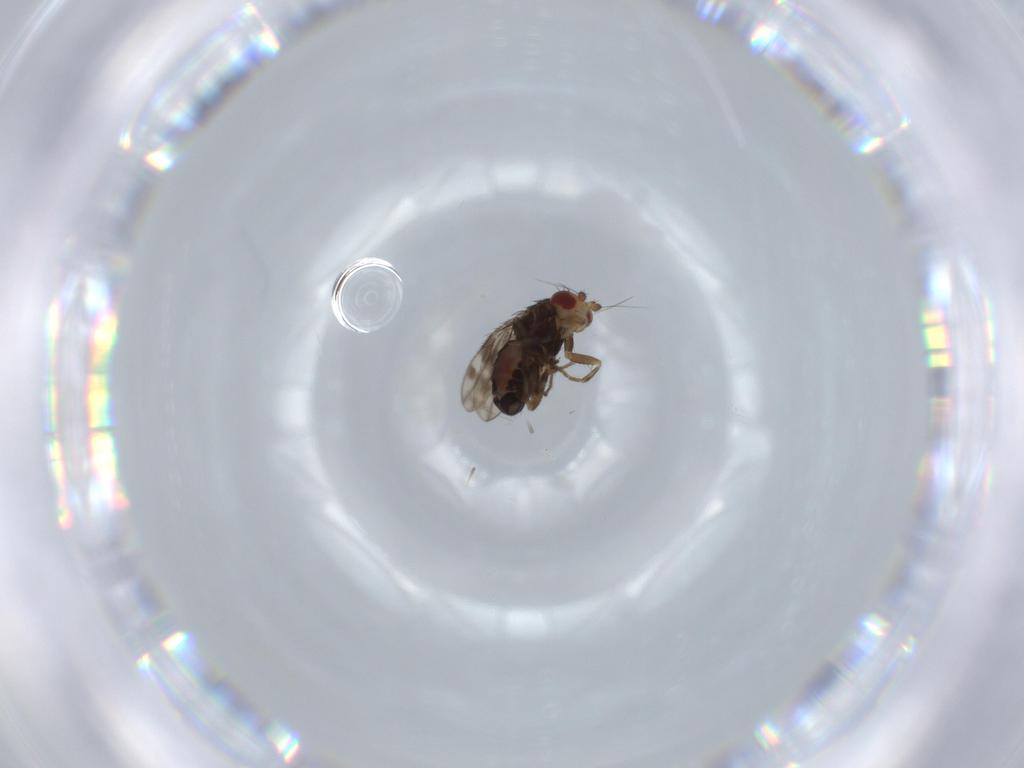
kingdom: Animalia
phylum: Arthropoda
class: Insecta
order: Diptera
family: Sphaeroceridae
